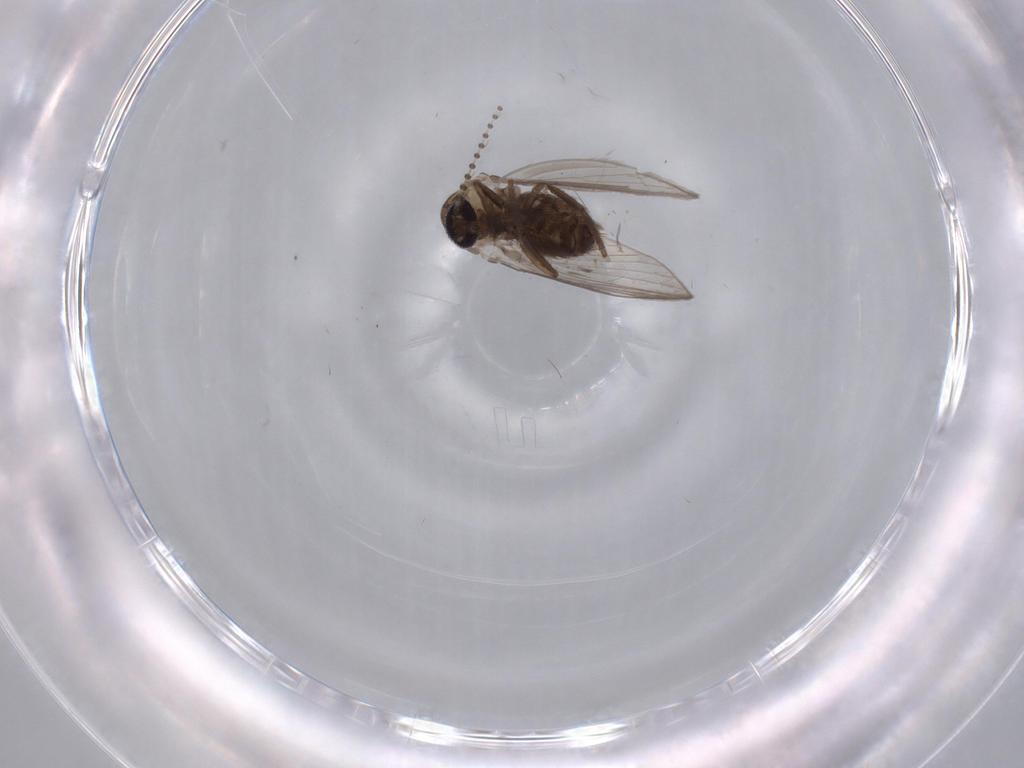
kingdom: Animalia
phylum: Arthropoda
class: Insecta
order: Diptera
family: Psychodidae
